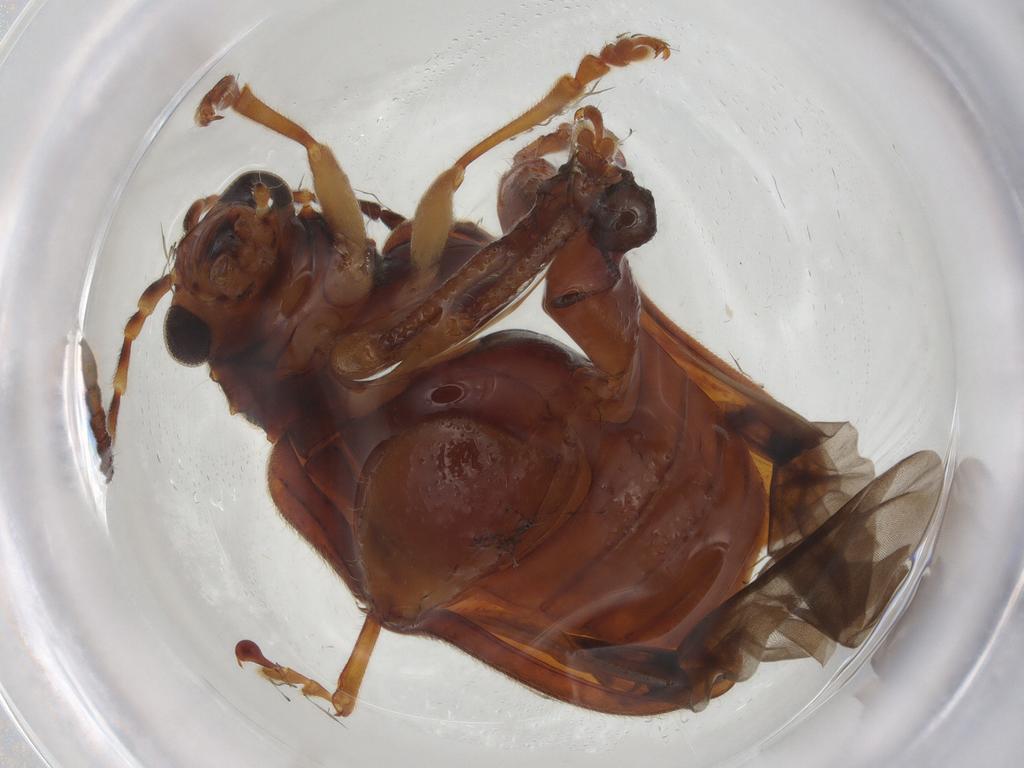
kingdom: Animalia
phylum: Arthropoda
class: Insecta
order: Coleoptera
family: Chrysomelidae
